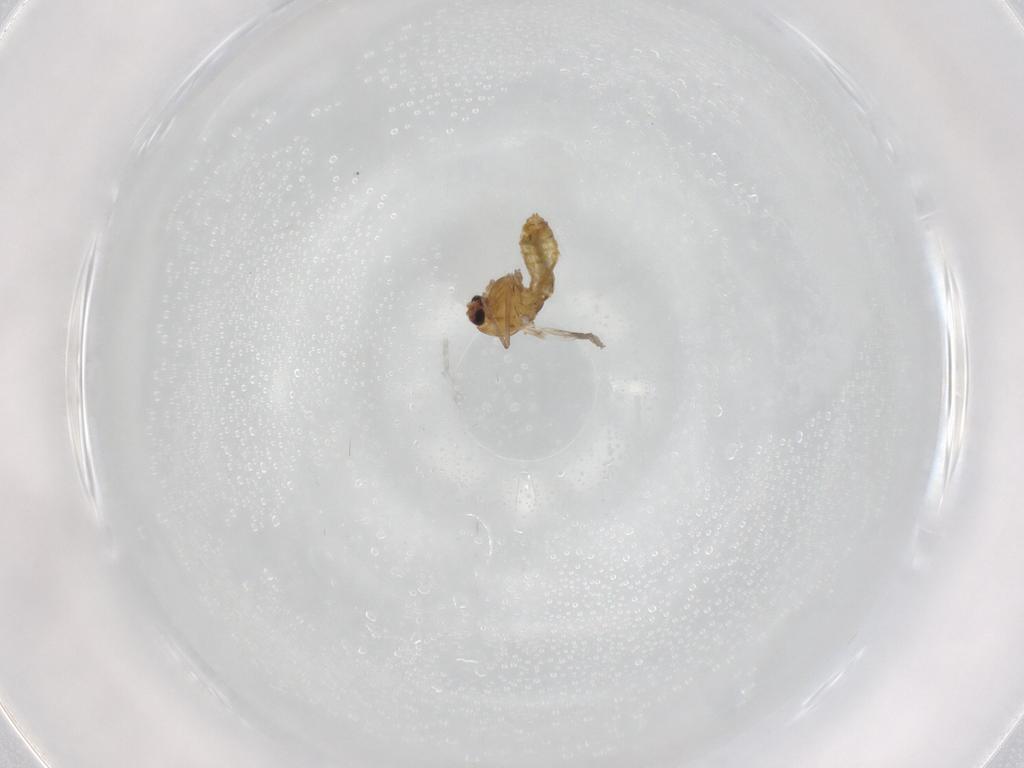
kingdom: Animalia
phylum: Arthropoda
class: Insecta
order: Diptera
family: Chironomidae
